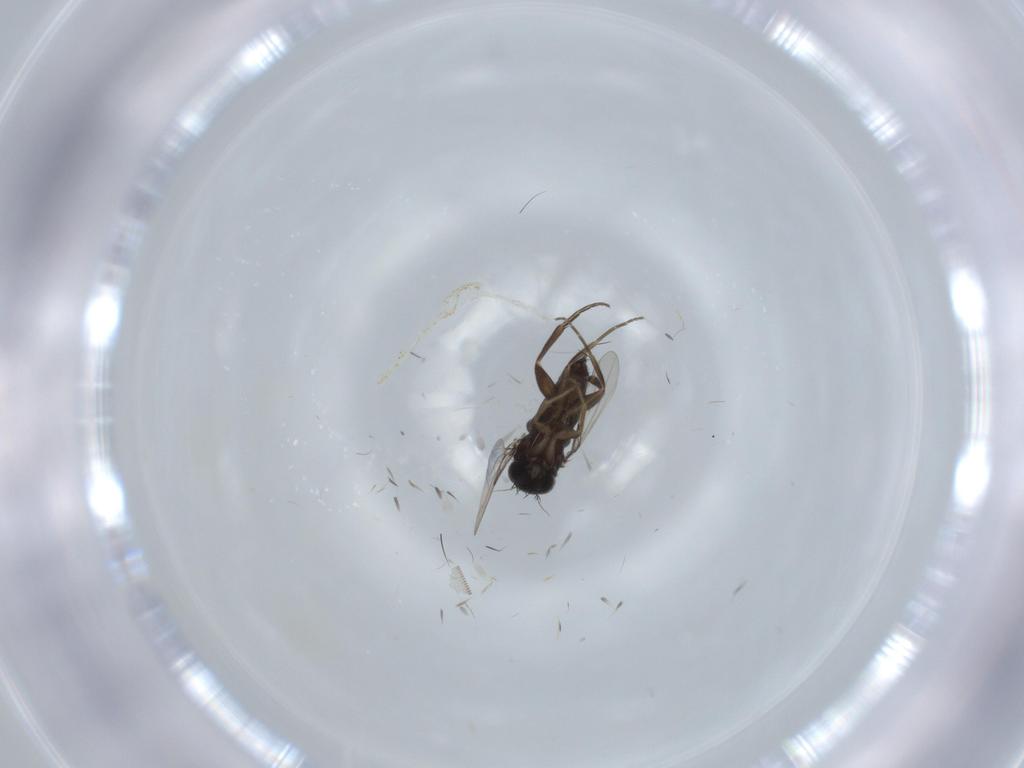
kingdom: Animalia
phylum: Arthropoda
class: Insecta
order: Diptera
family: Phoridae
